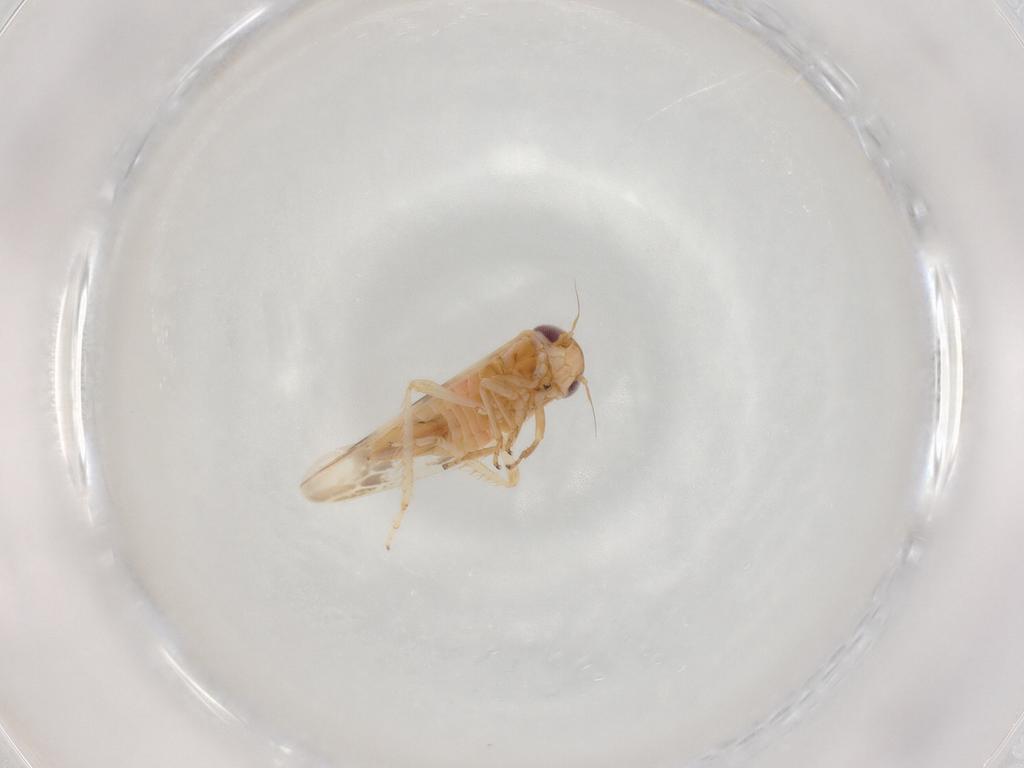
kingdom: Animalia
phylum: Arthropoda
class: Insecta
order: Hemiptera
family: Cicadellidae
